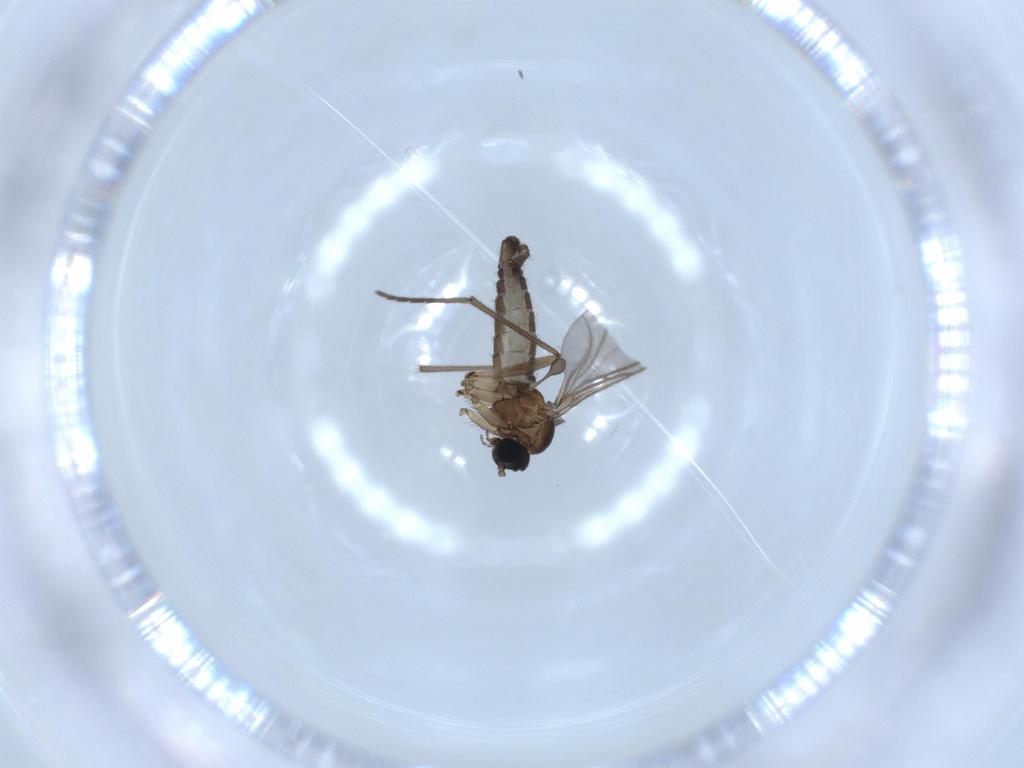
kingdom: Animalia
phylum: Arthropoda
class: Insecta
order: Diptera
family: Sciaridae
